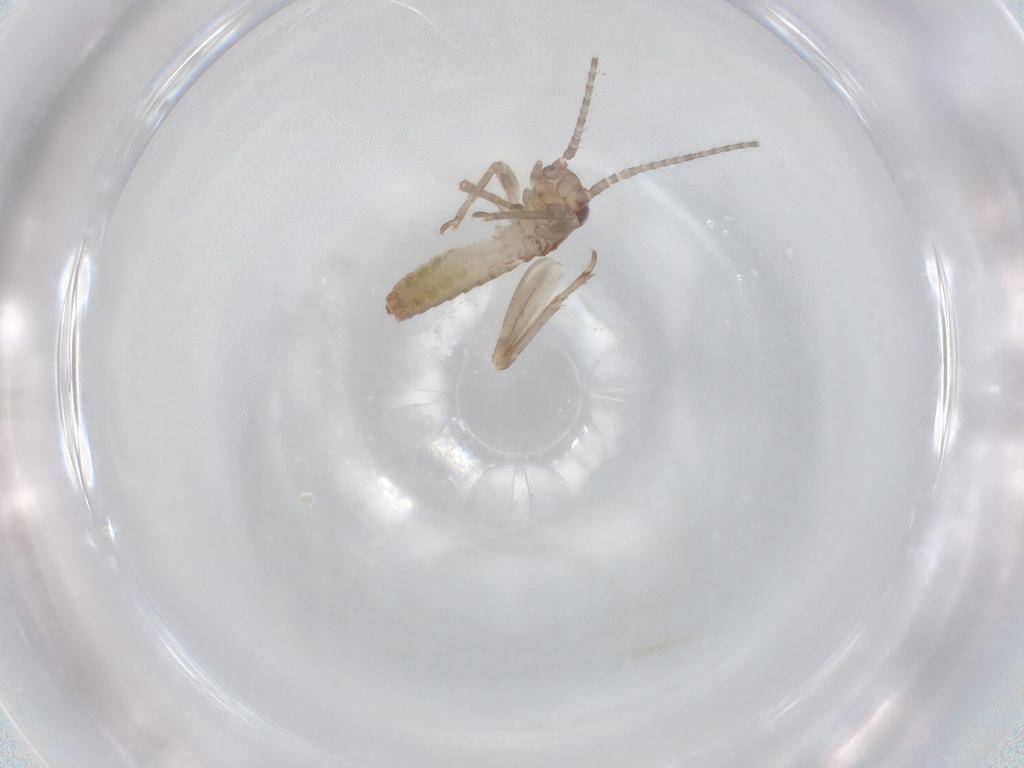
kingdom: Animalia
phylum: Arthropoda
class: Insecta
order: Orthoptera
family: Mogoplistidae
